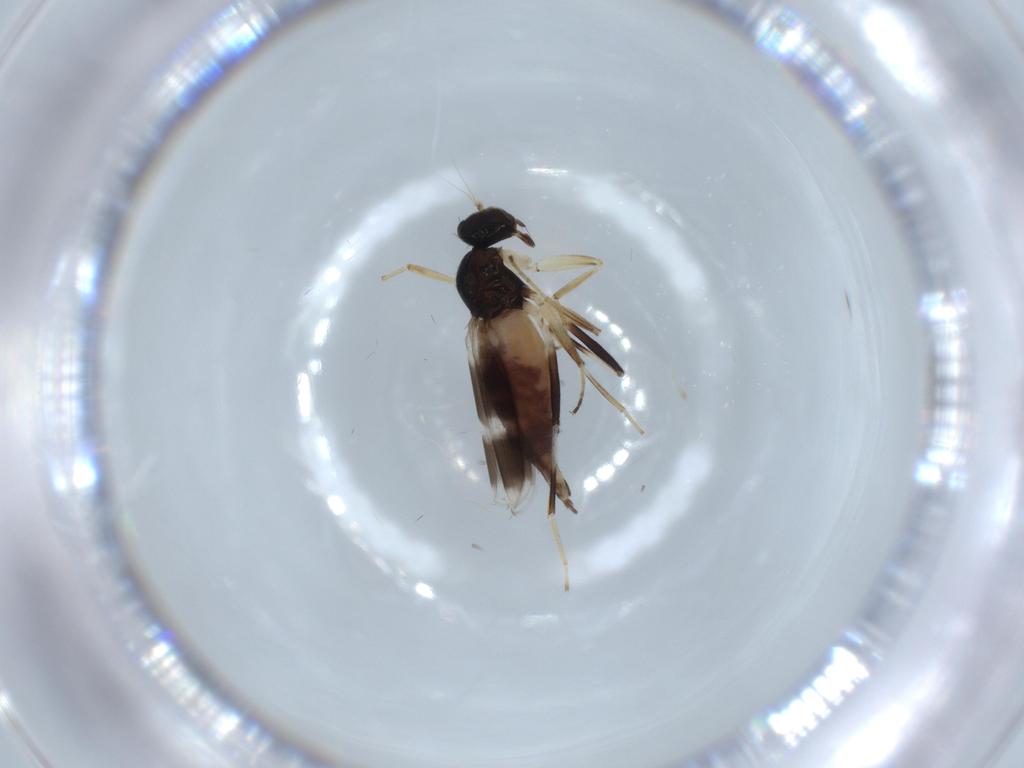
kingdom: Animalia
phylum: Arthropoda
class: Insecta
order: Diptera
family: Hybotidae
